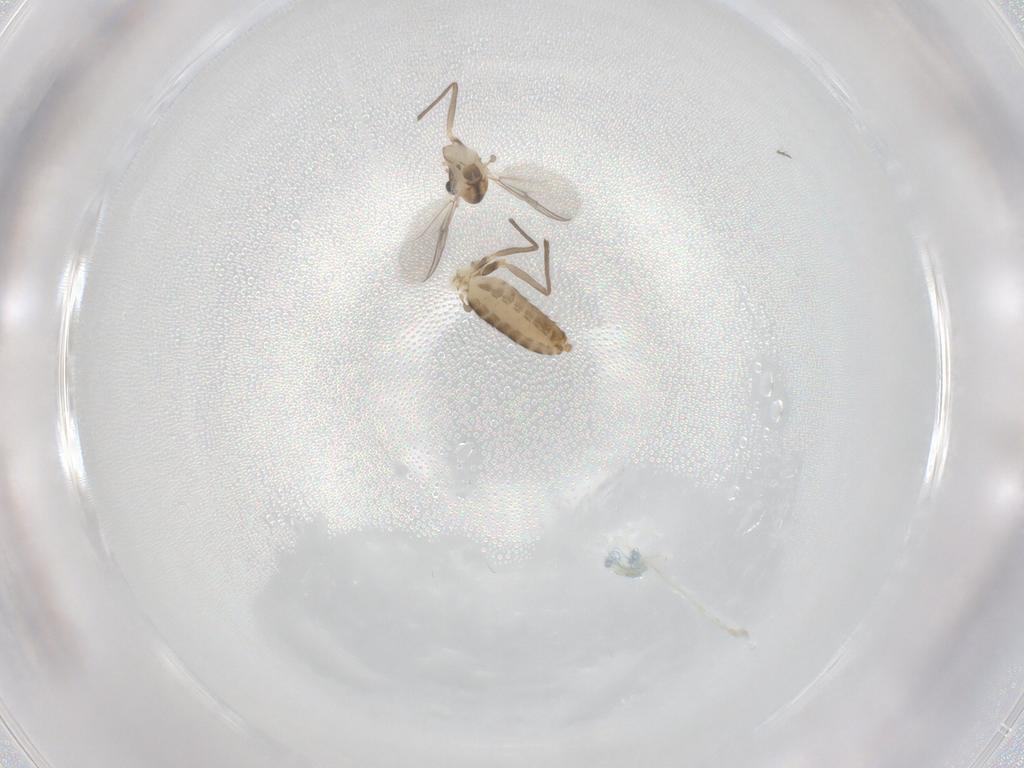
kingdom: Animalia
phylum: Arthropoda
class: Insecta
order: Diptera
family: Chironomidae
